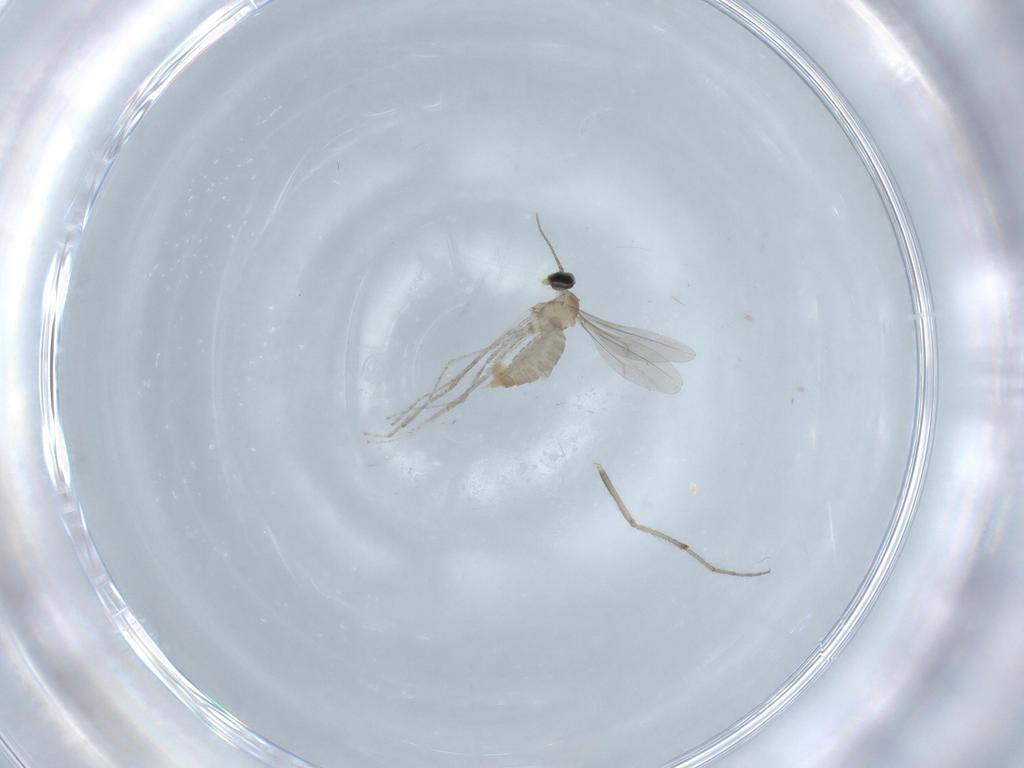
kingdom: Animalia
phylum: Arthropoda
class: Insecta
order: Diptera
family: Cecidomyiidae
